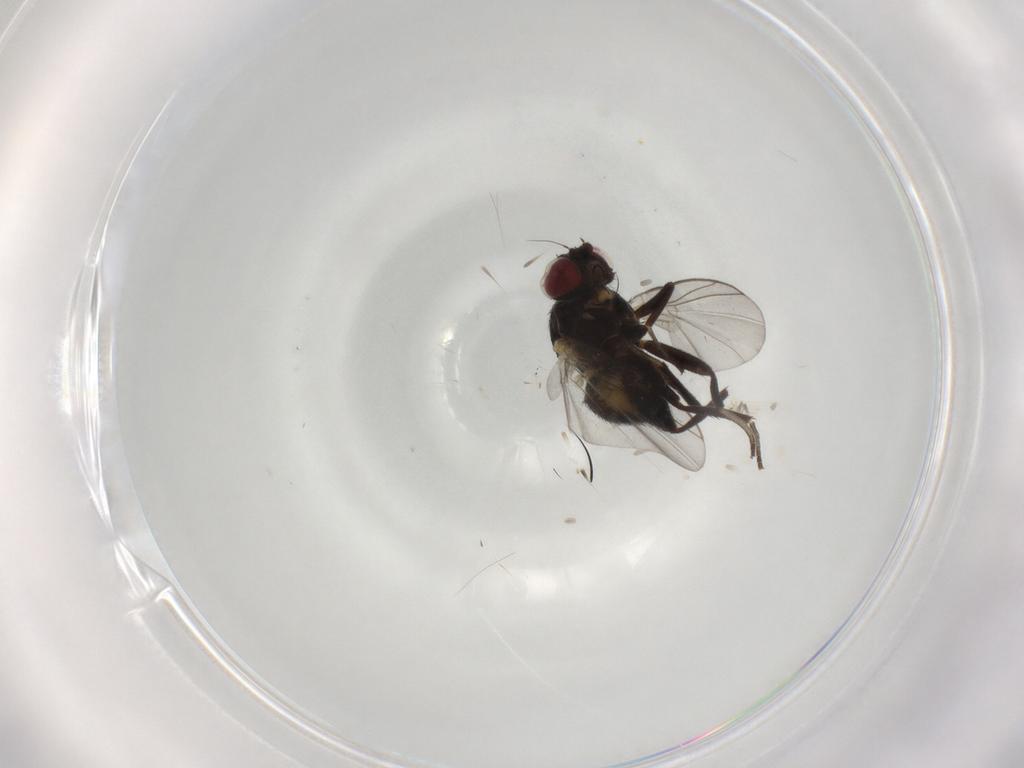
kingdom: Animalia
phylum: Arthropoda
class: Insecta
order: Diptera
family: Agromyzidae
